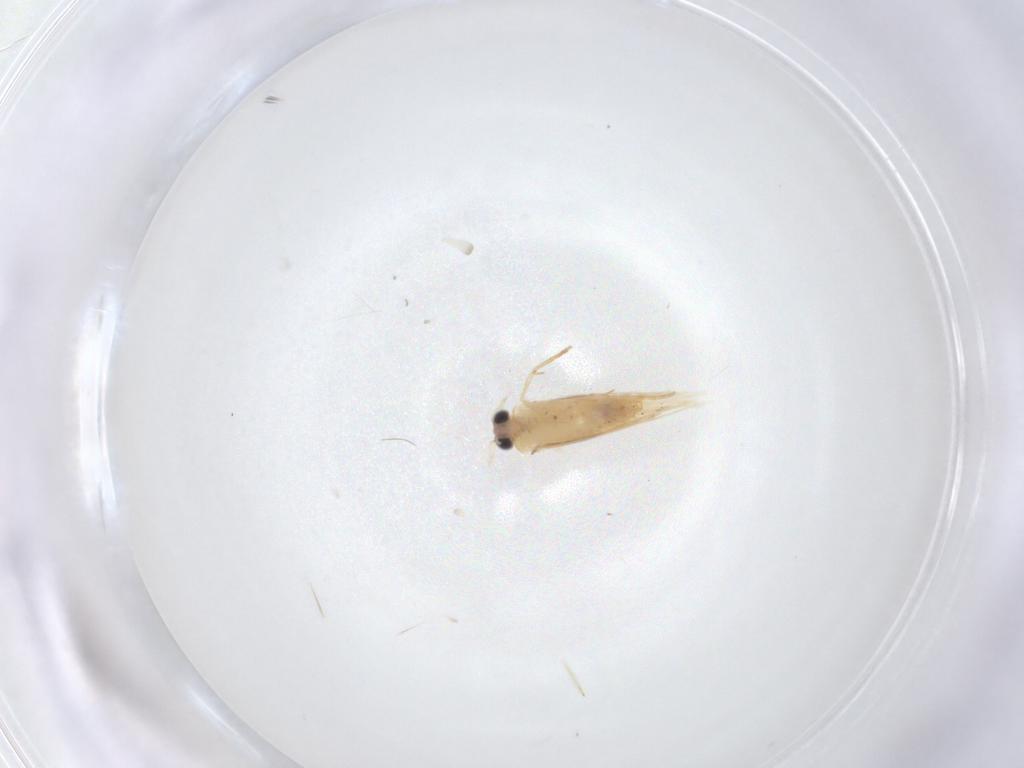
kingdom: Animalia
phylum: Arthropoda
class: Insecta
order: Lepidoptera
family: Nepticulidae
